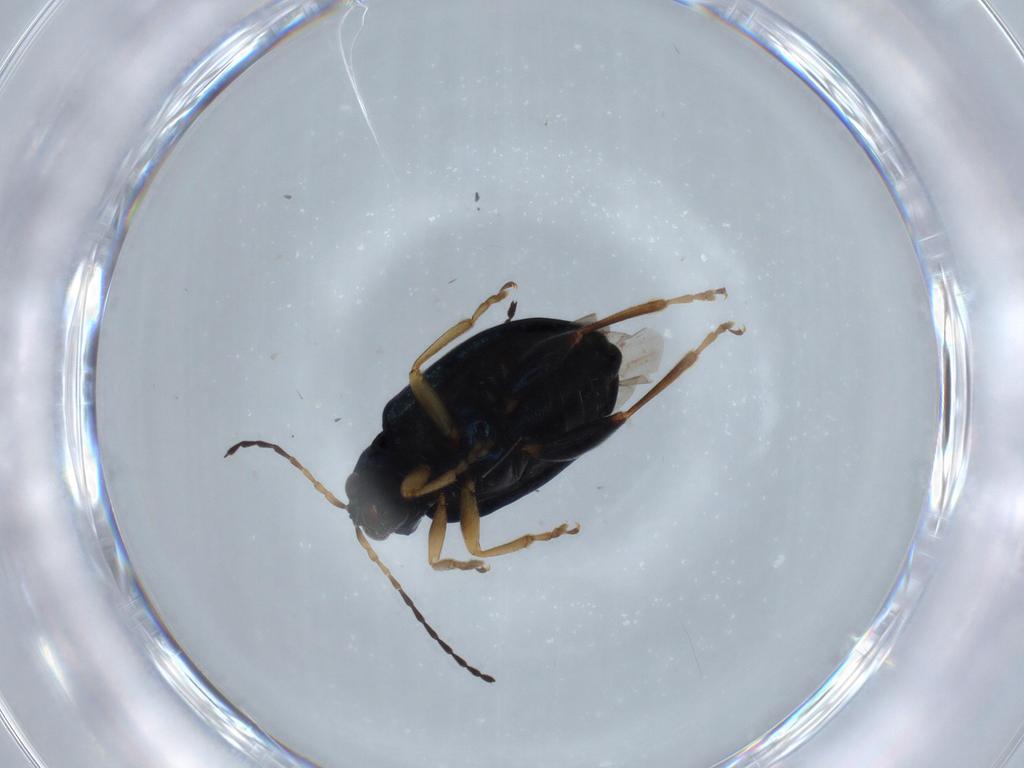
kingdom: Animalia
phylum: Arthropoda
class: Insecta
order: Coleoptera
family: Chrysomelidae
